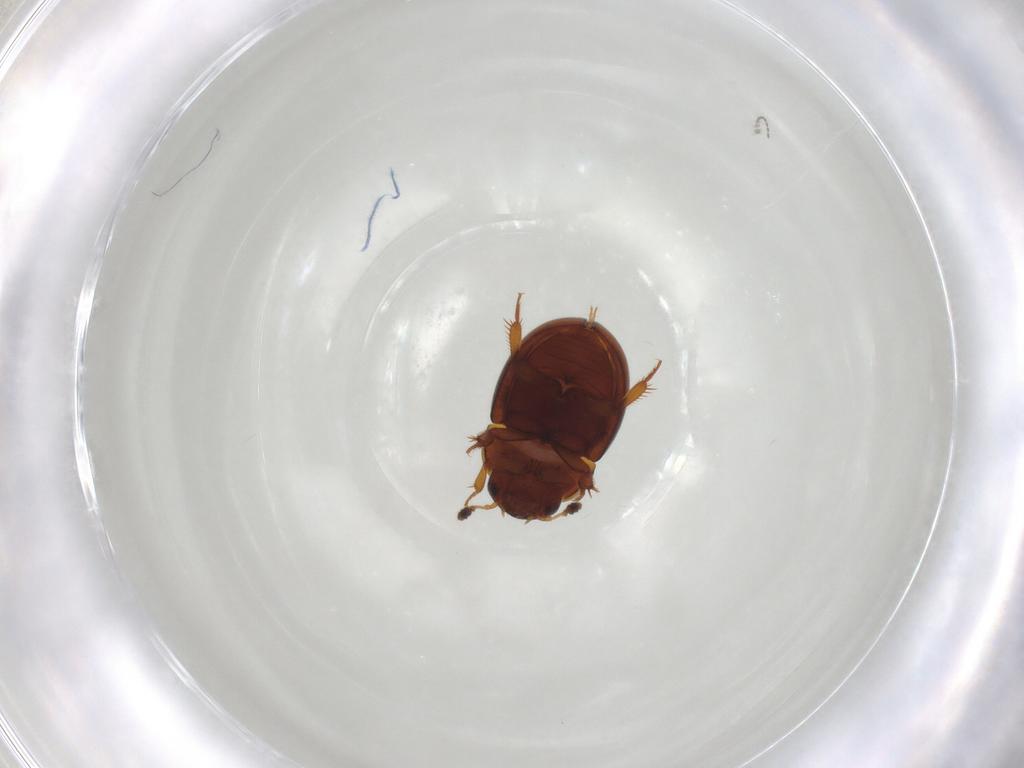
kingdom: Animalia
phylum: Arthropoda
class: Insecta
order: Coleoptera
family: Leiodidae
